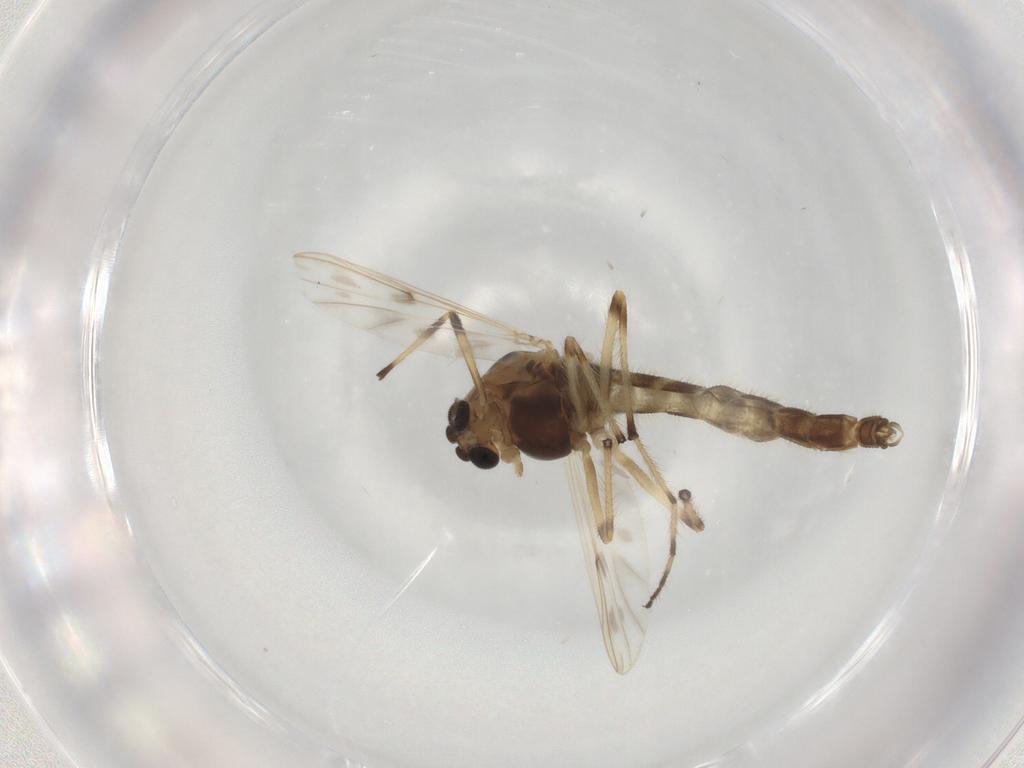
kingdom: Animalia
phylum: Arthropoda
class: Insecta
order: Diptera
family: Chironomidae
